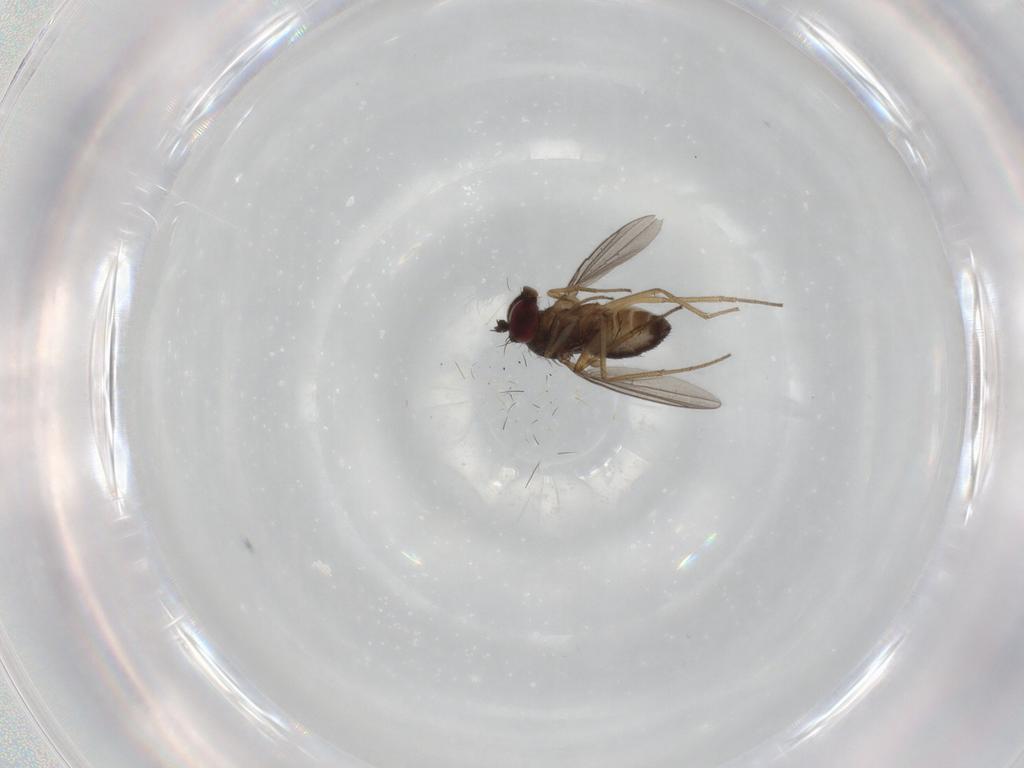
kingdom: Animalia
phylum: Arthropoda
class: Insecta
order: Diptera
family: Dolichopodidae
